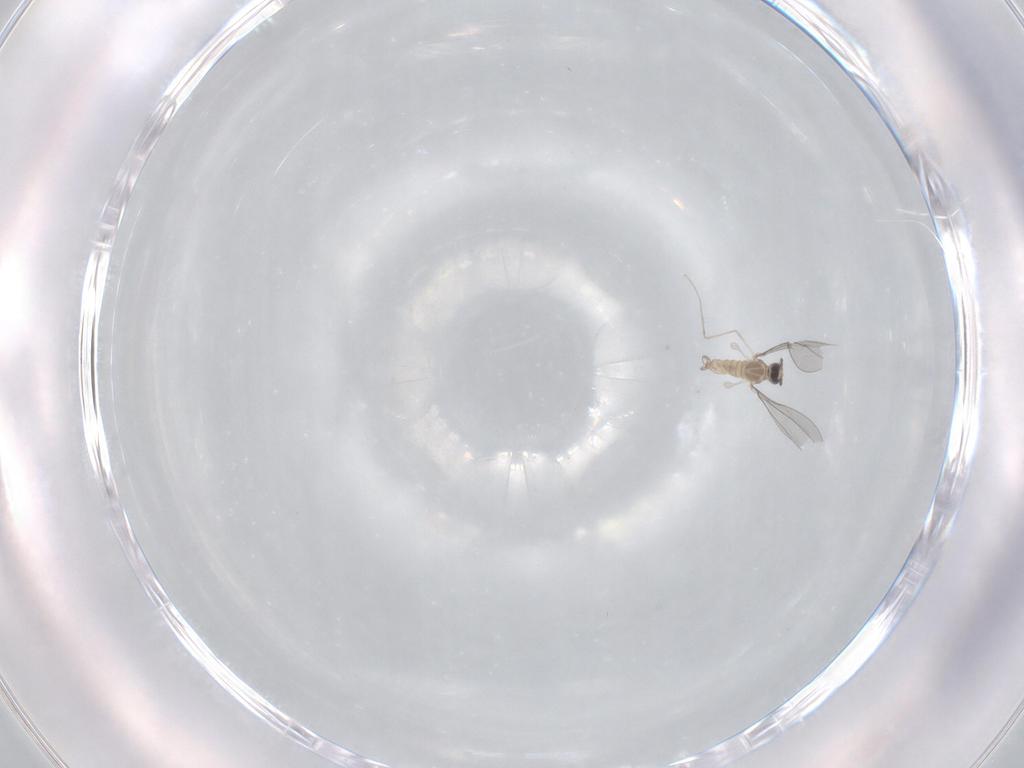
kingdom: Animalia
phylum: Arthropoda
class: Insecta
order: Diptera
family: Cecidomyiidae
